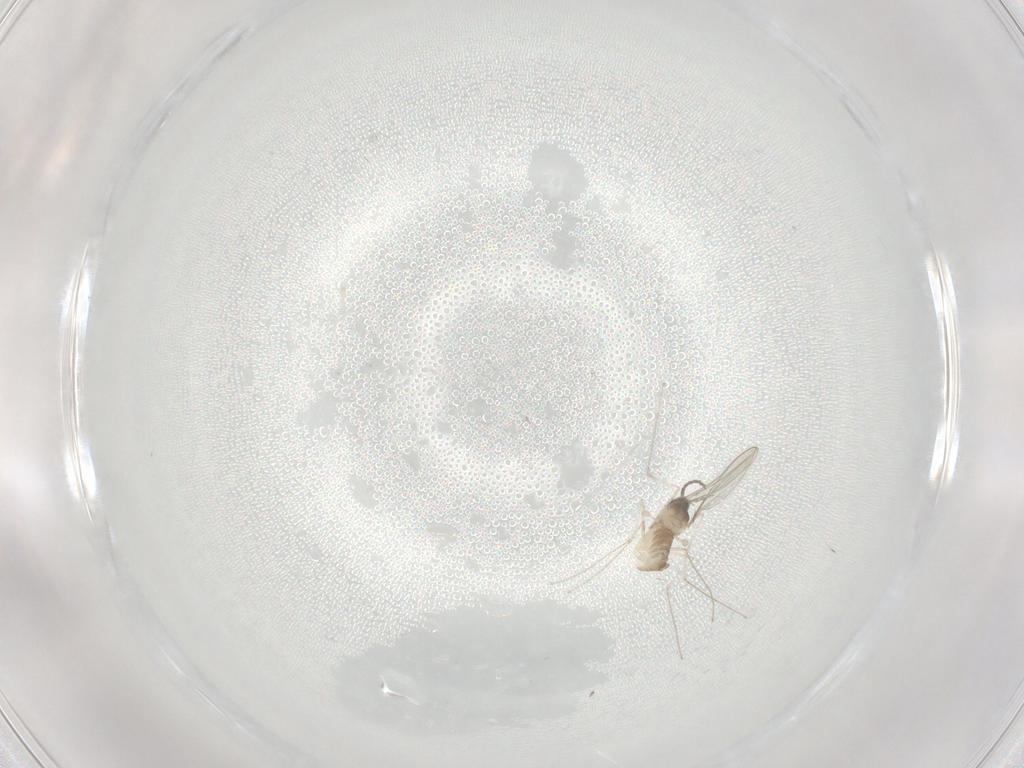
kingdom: Animalia
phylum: Arthropoda
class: Insecta
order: Diptera
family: Cecidomyiidae
